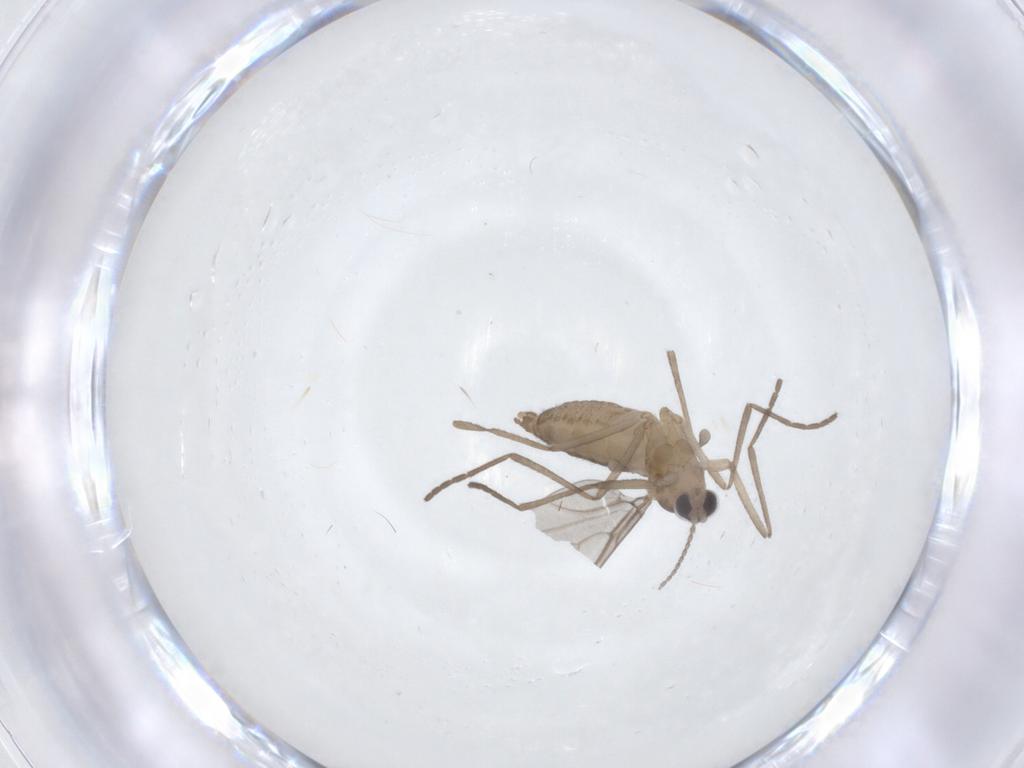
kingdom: Animalia
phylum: Arthropoda
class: Insecta
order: Diptera
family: Cecidomyiidae
